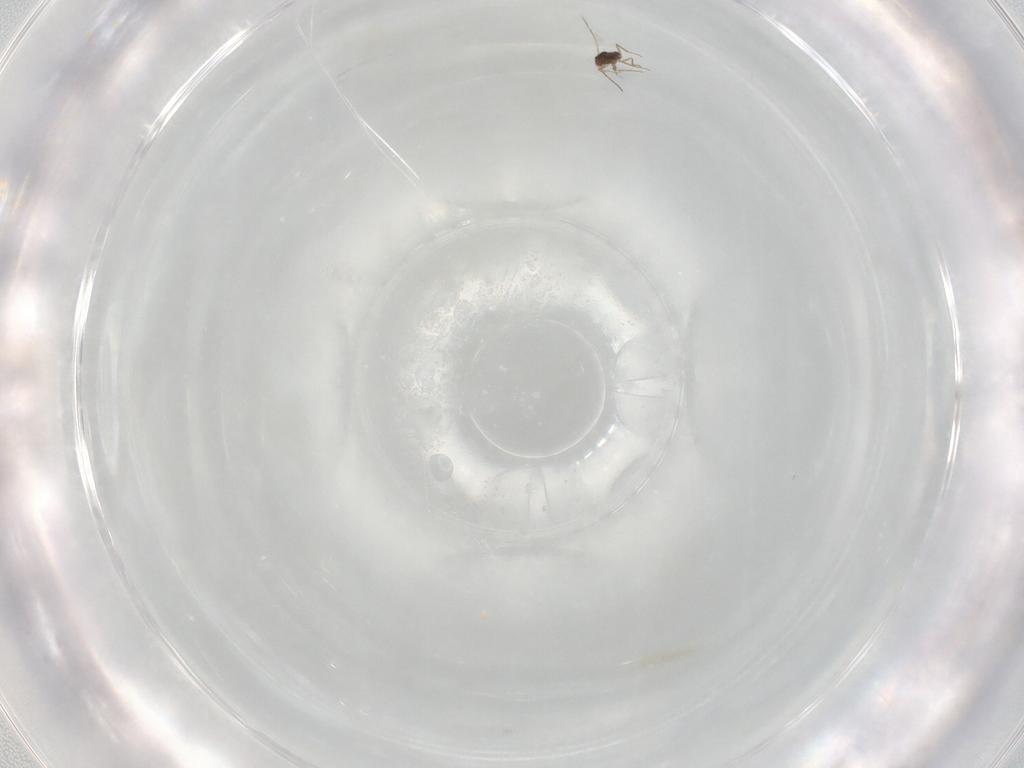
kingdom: Animalia
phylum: Arthropoda
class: Insecta
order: Hymenoptera
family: Mymaridae
